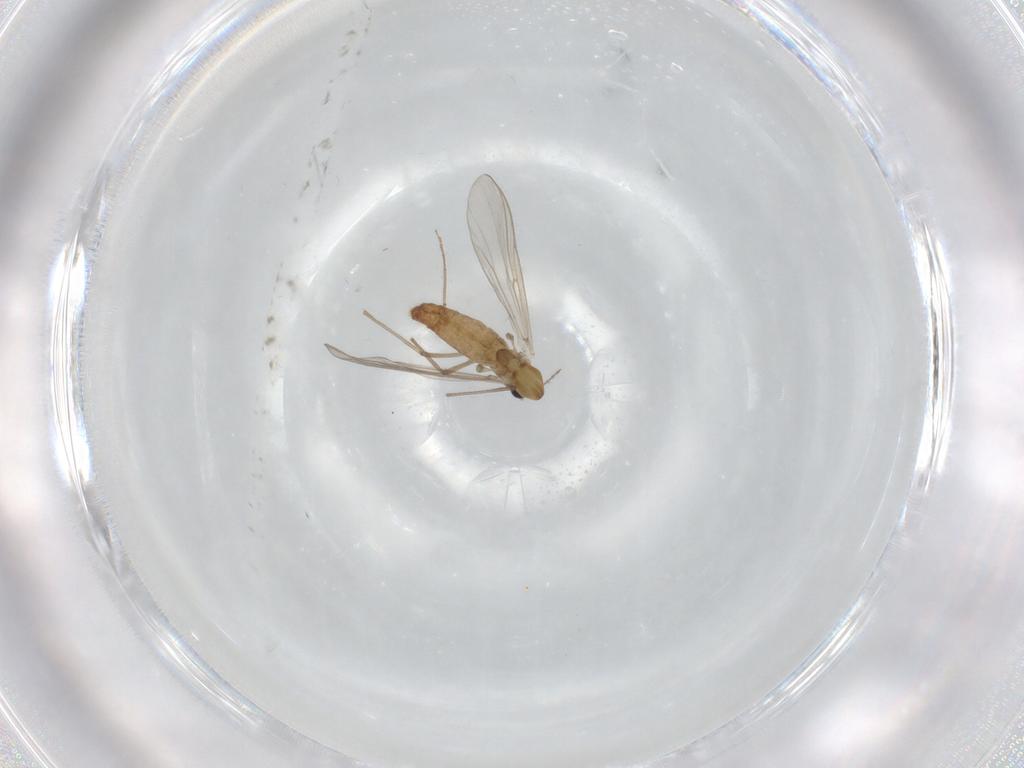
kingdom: Animalia
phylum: Arthropoda
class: Insecta
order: Diptera
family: Chironomidae
